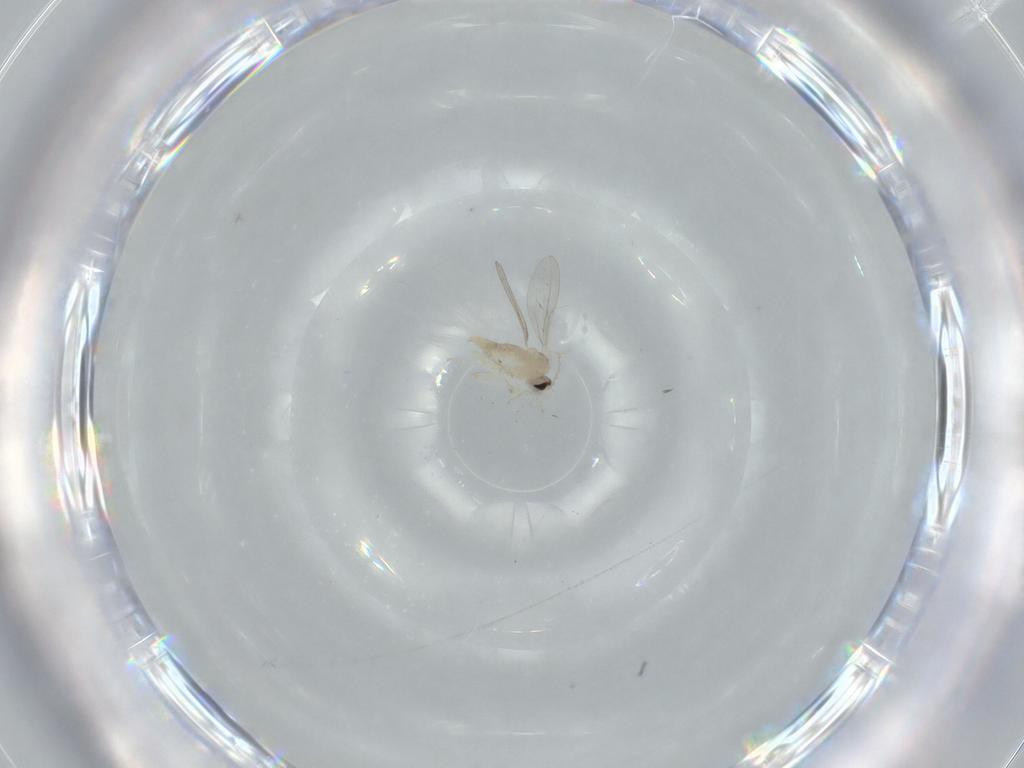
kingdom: Animalia
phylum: Arthropoda
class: Insecta
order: Diptera
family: Cecidomyiidae
